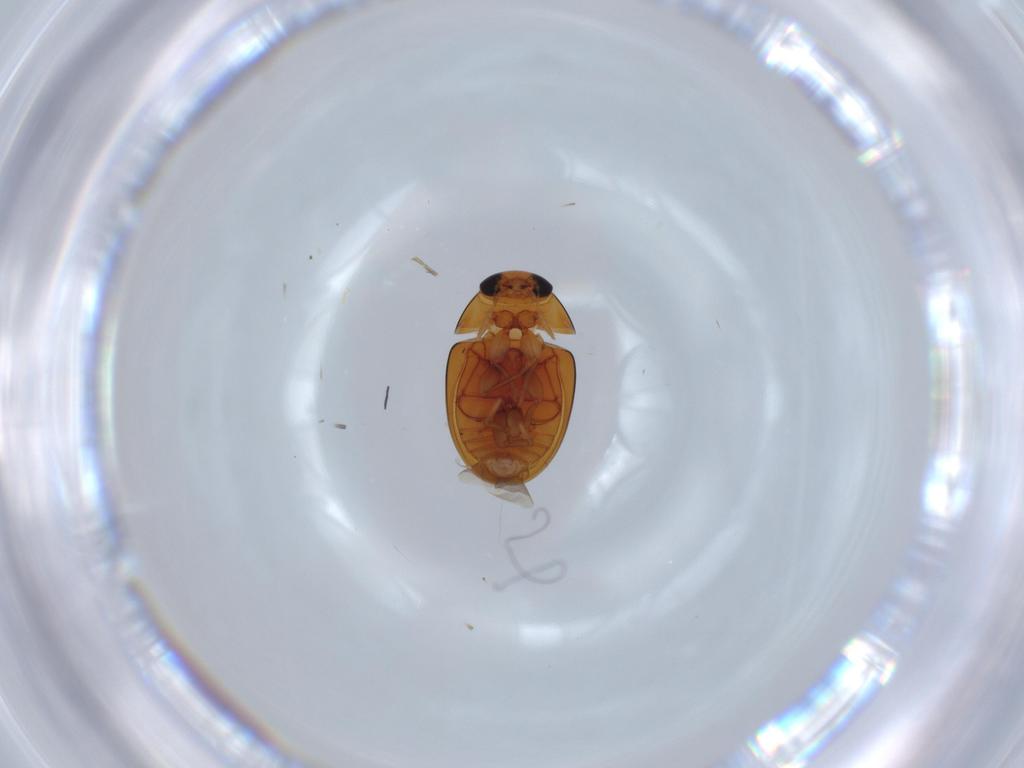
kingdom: Animalia
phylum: Arthropoda
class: Insecta
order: Coleoptera
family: Chrysomelidae
